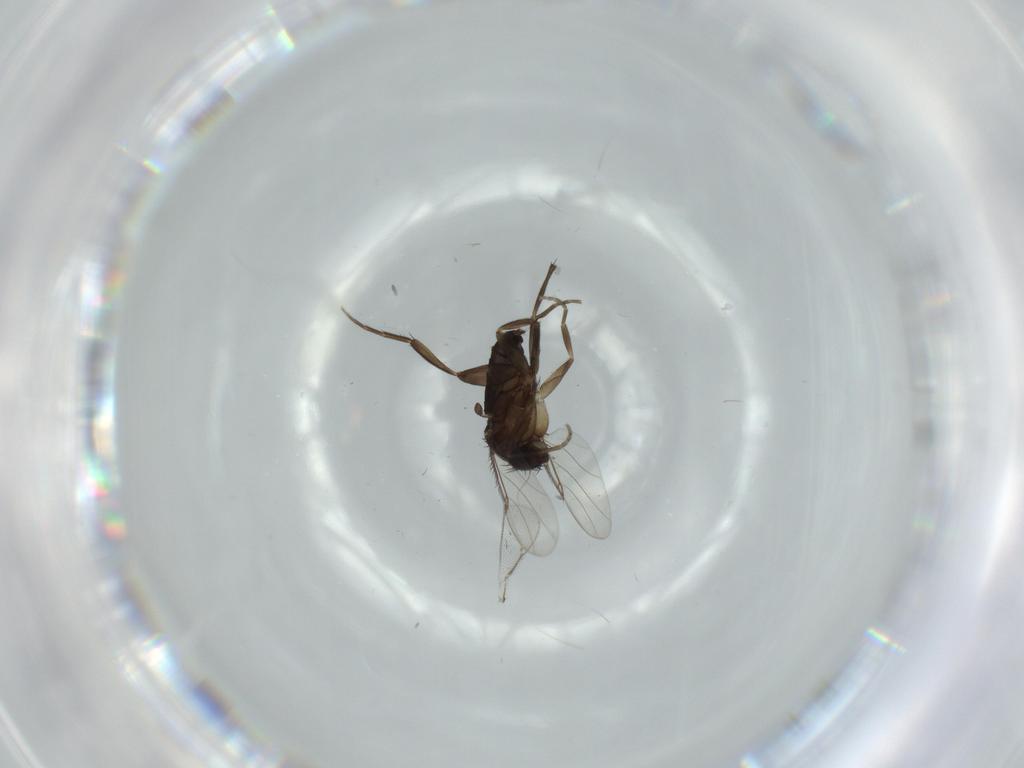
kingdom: Animalia
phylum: Arthropoda
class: Insecta
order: Diptera
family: Phoridae
